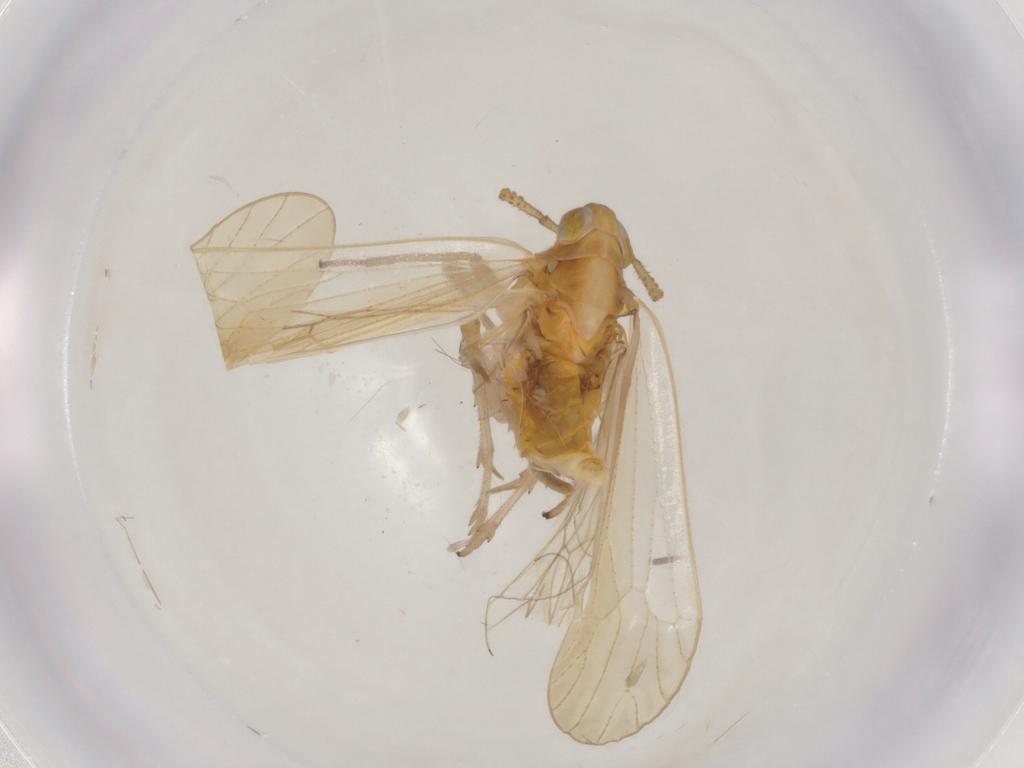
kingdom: Animalia
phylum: Arthropoda
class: Insecta
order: Hemiptera
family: Delphacidae
